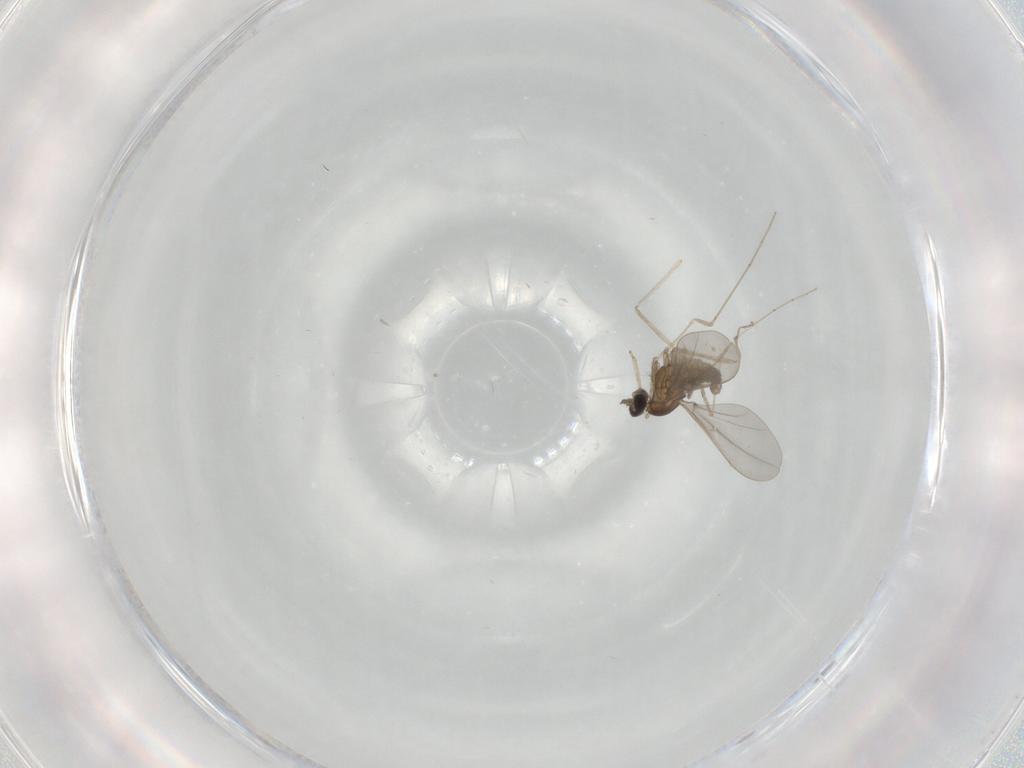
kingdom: Animalia
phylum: Arthropoda
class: Insecta
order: Diptera
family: Cecidomyiidae
